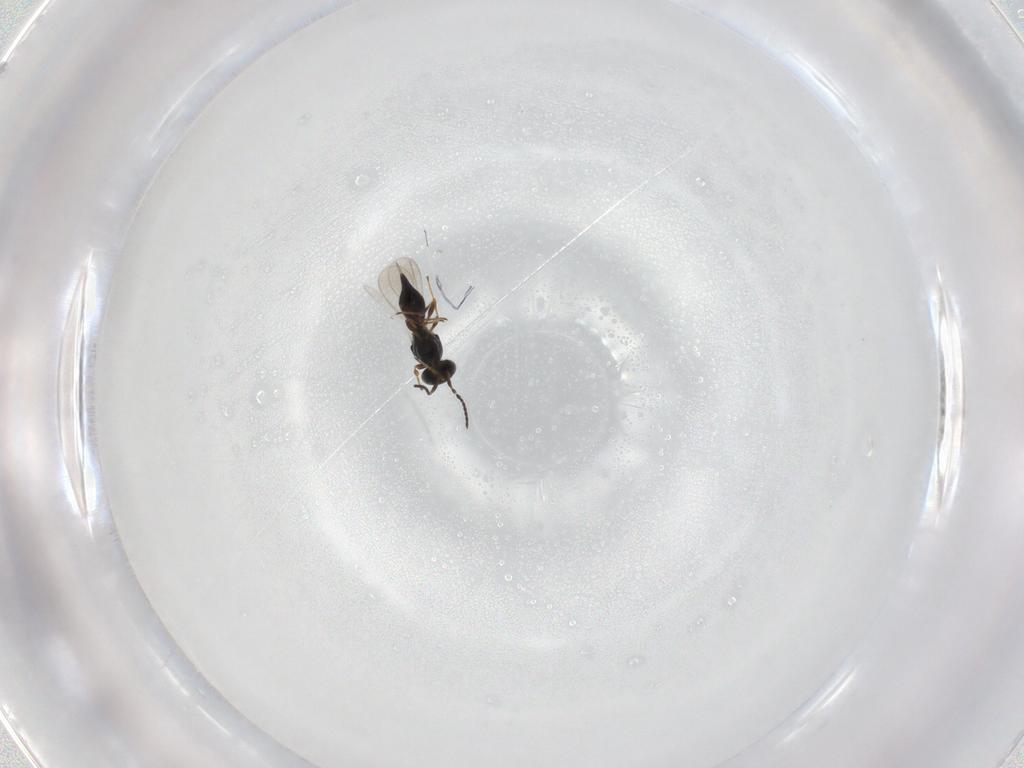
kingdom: Animalia
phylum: Arthropoda
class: Insecta
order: Hymenoptera
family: Platygastridae
